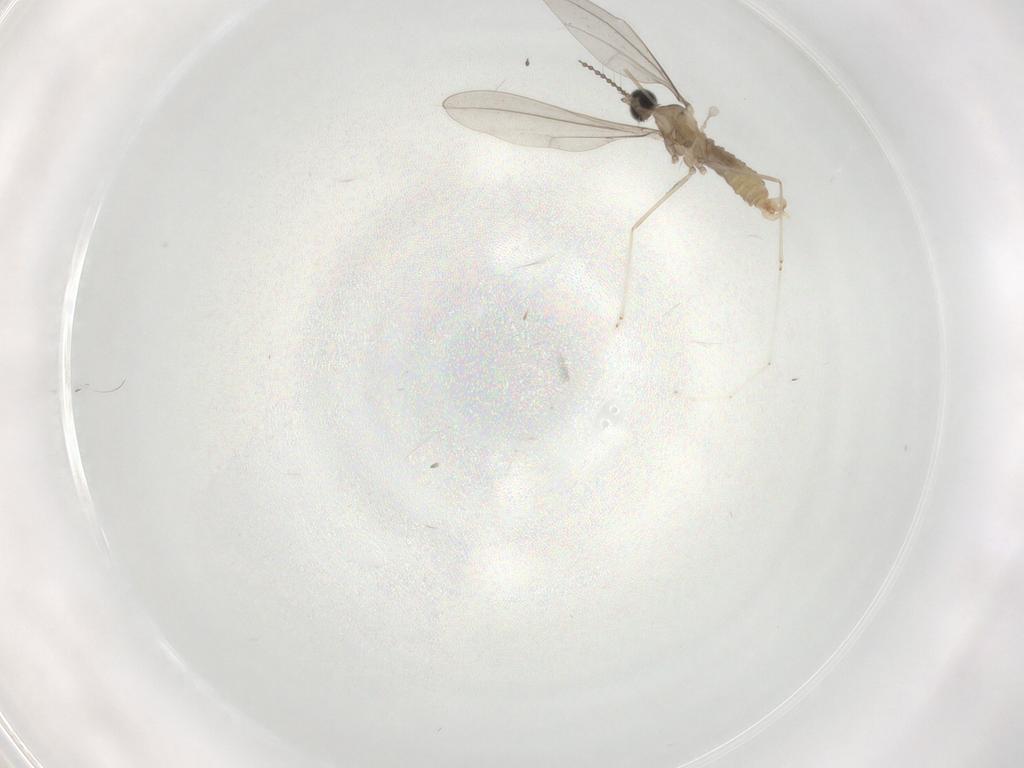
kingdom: Animalia
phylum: Arthropoda
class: Insecta
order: Diptera
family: Cecidomyiidae
